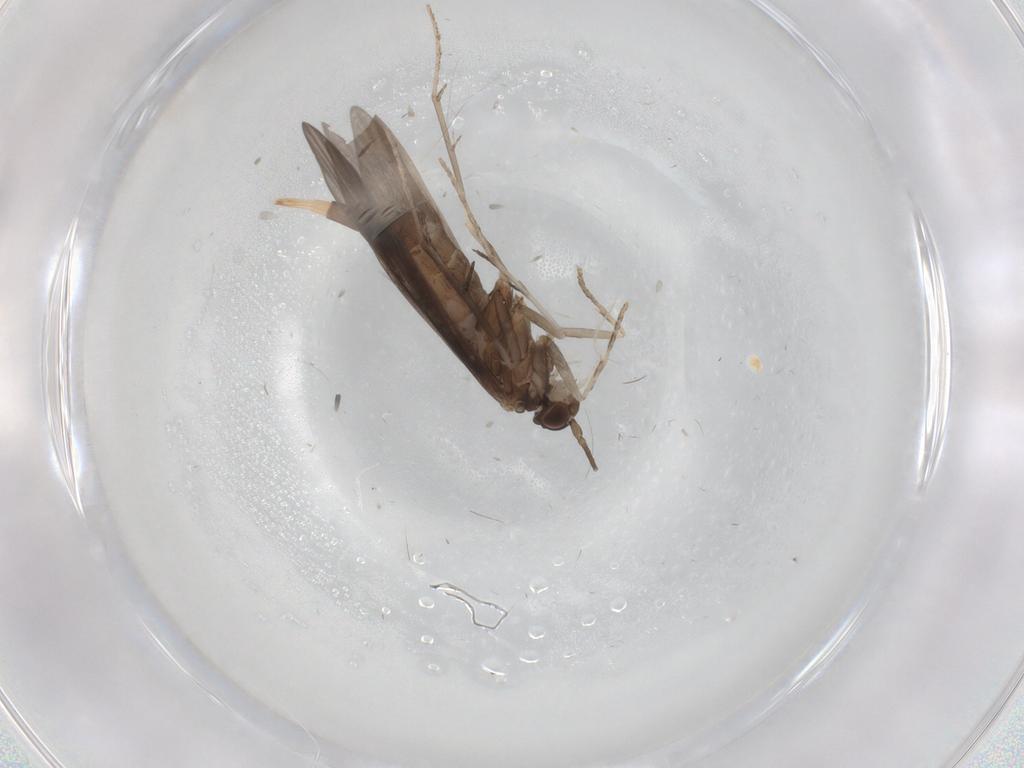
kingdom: Animalia
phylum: Arthropoda
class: Insecta
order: Trichoptera
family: Xiphocentronidae
